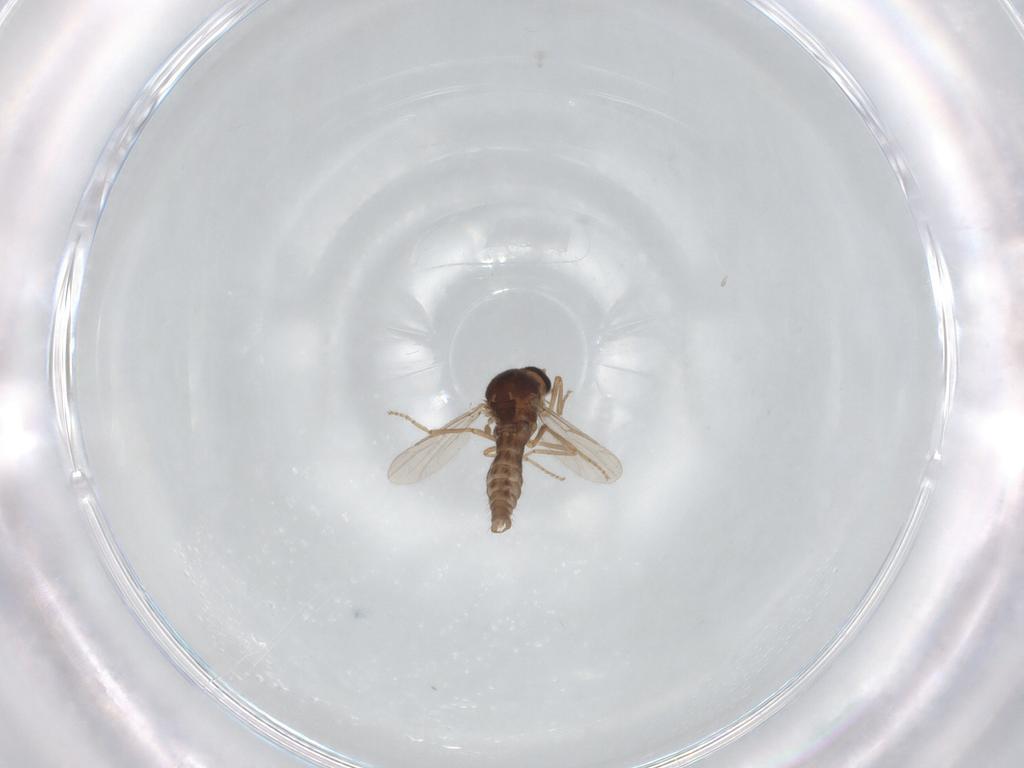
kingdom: Animalia
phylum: Arthropoda
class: Insecta
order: Diptera
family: Ceratopogonidae
